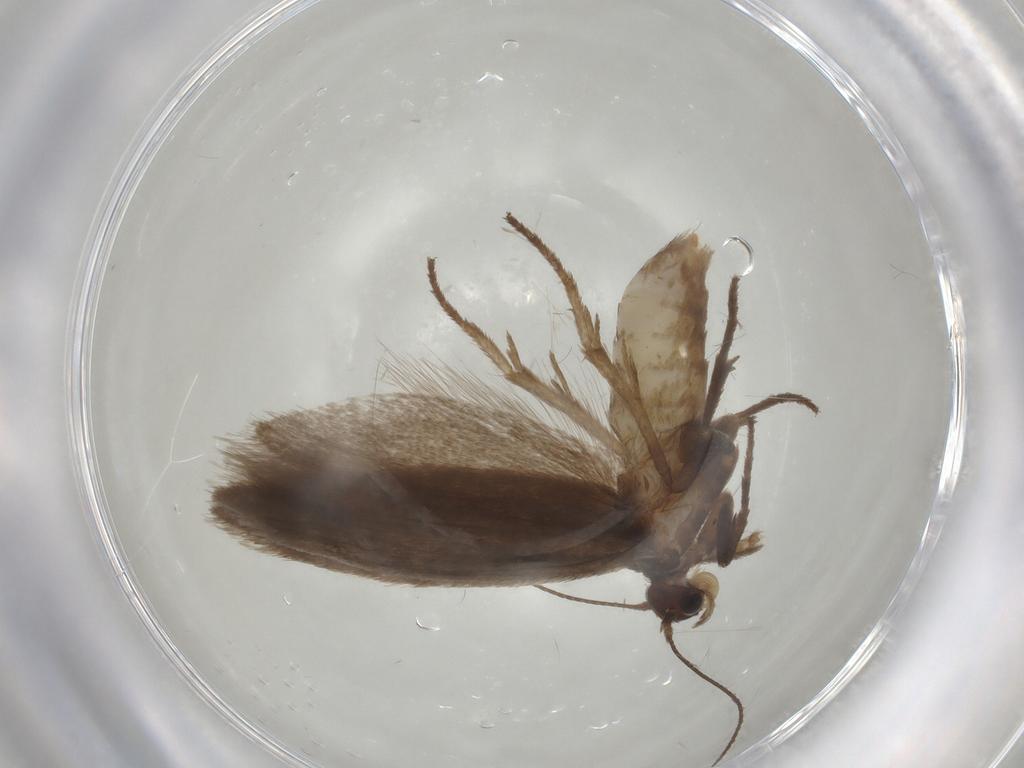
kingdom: Animalia
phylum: Arthropoda
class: Insecta
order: Lepidoptera
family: Limacodidae
